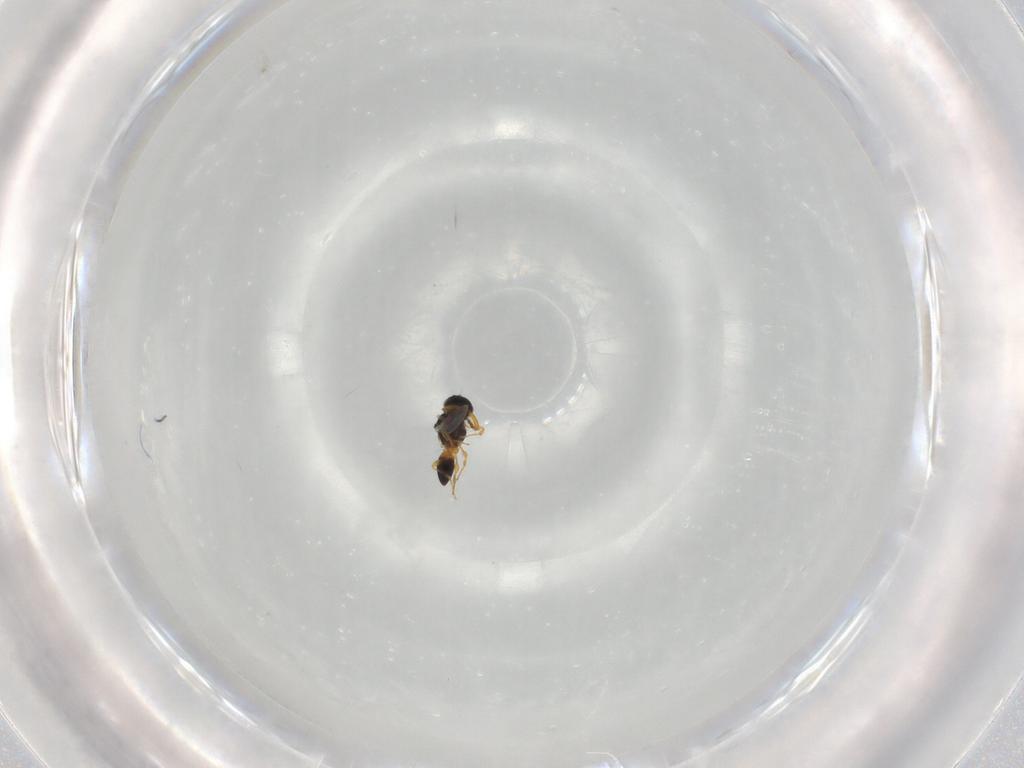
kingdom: Animalia
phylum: Arthropoda
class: Insecta
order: Hymenoptera
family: Platygastridae
